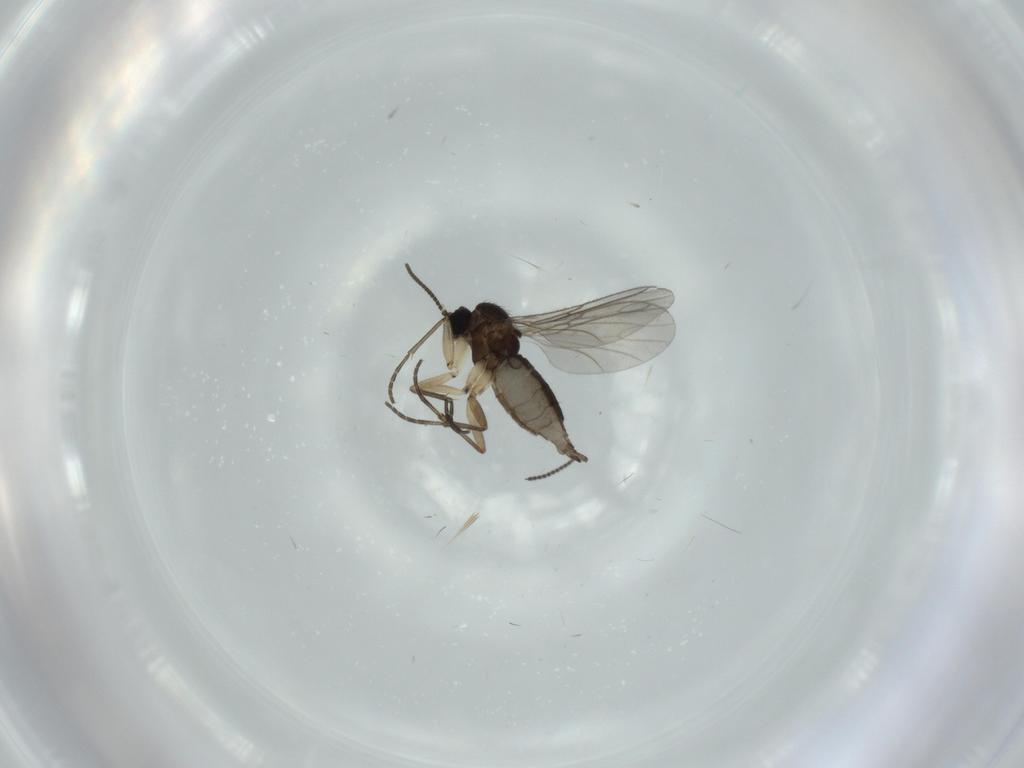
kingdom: Animalia
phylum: Arthropoda
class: Insecta
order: Diptera
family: Sciaridae
